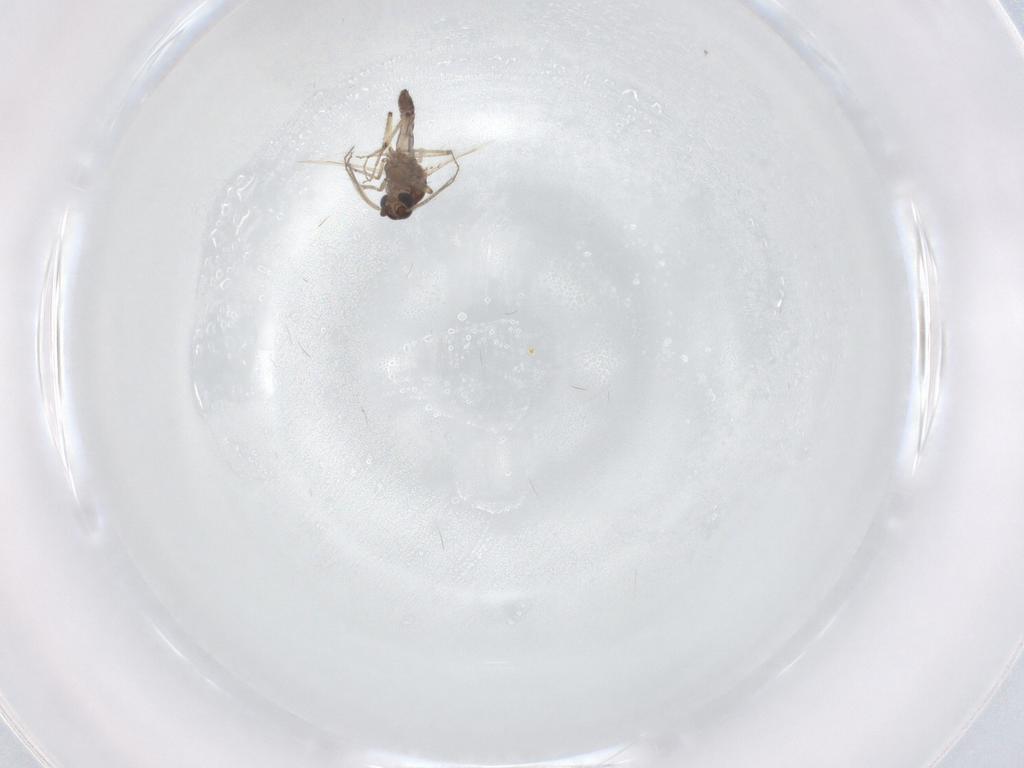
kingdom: Animalia
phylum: Arthropoda
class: Insecta
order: Diptera
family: Ceratopogonidae
